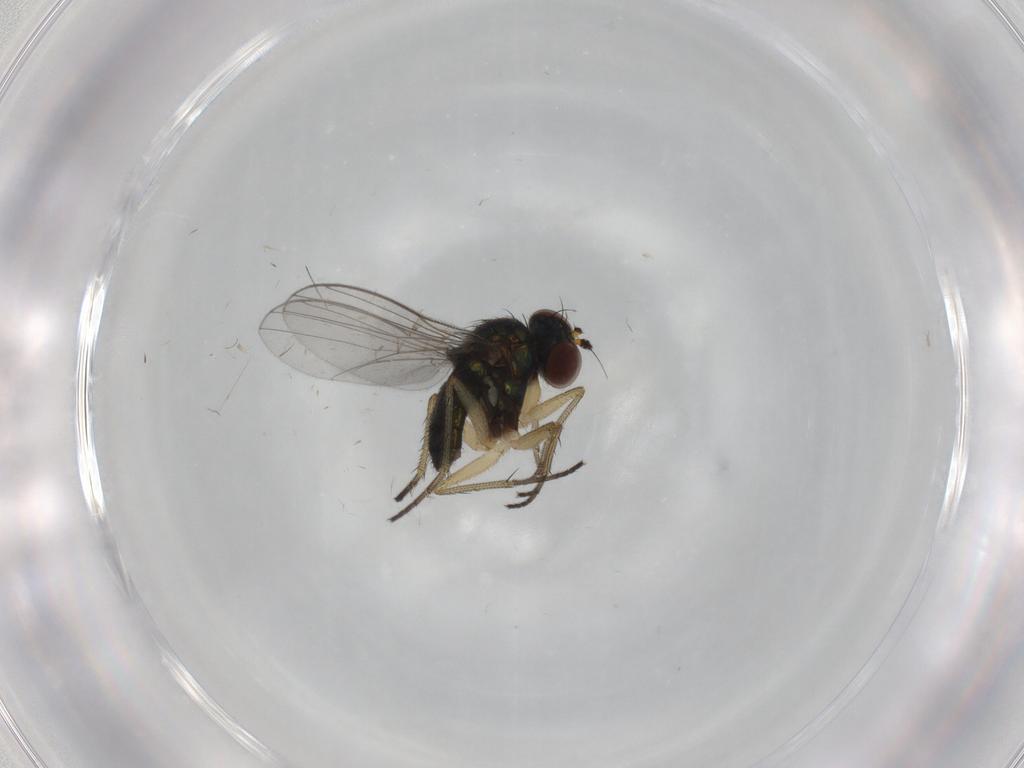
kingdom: Animalia
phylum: Arthropoda
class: Insecta
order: Diptera
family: Dolichopodidae
